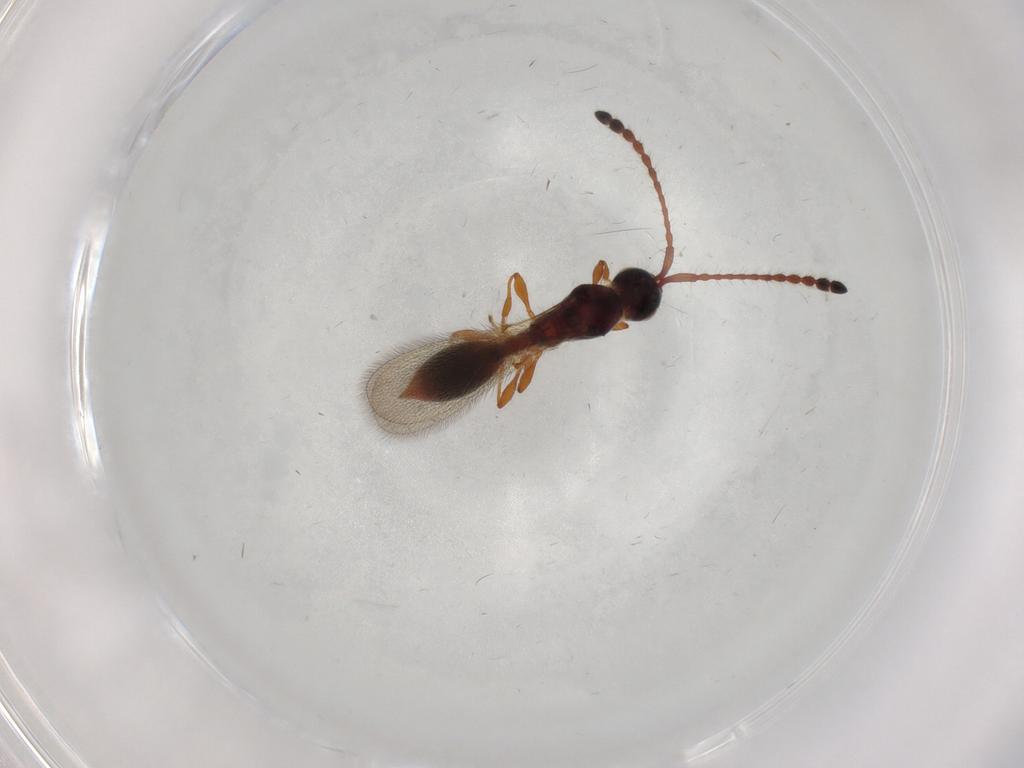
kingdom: Animalia
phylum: Arthropoda
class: Insecta
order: Hymenoptera
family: Diapriidae
